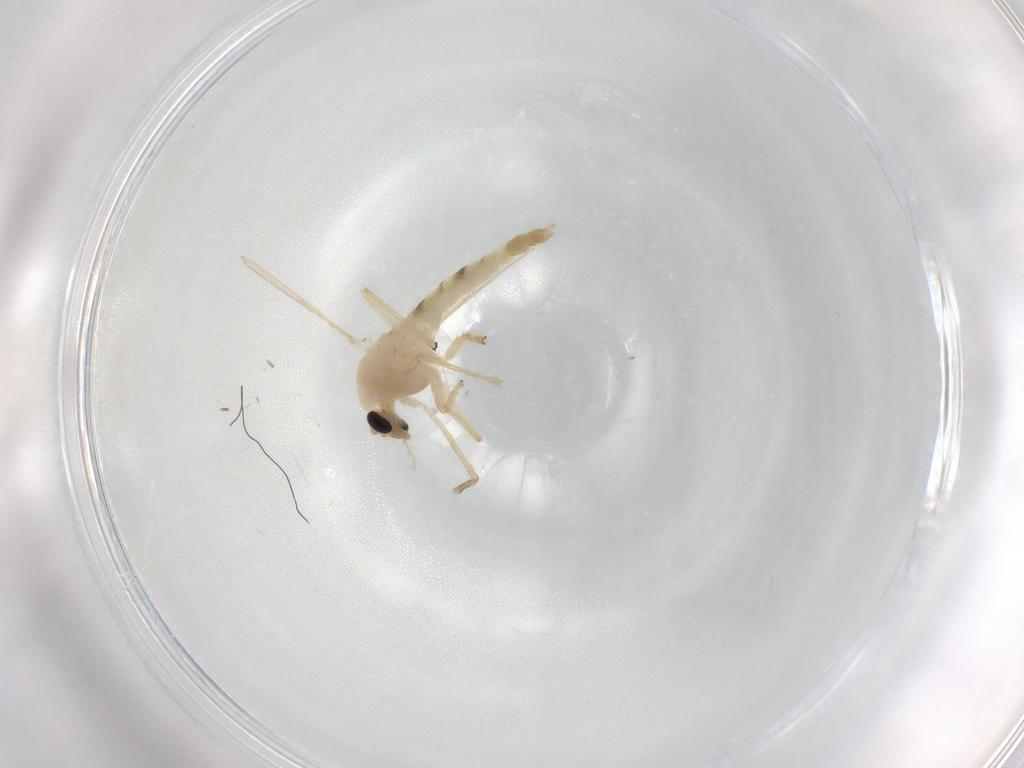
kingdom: Animalia
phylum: Arthropoda
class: Insecta
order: Diptera
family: Chironomidae
